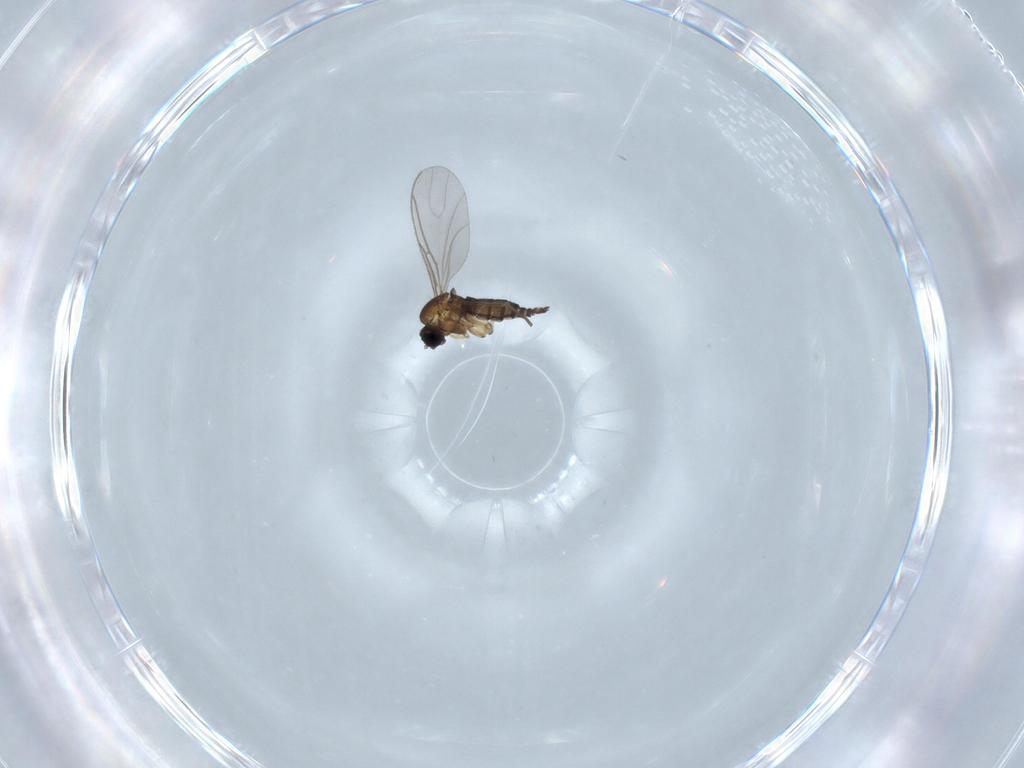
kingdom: Animalia
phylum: Arthropoda
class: Insecta
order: Diptera
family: Sciaridae
